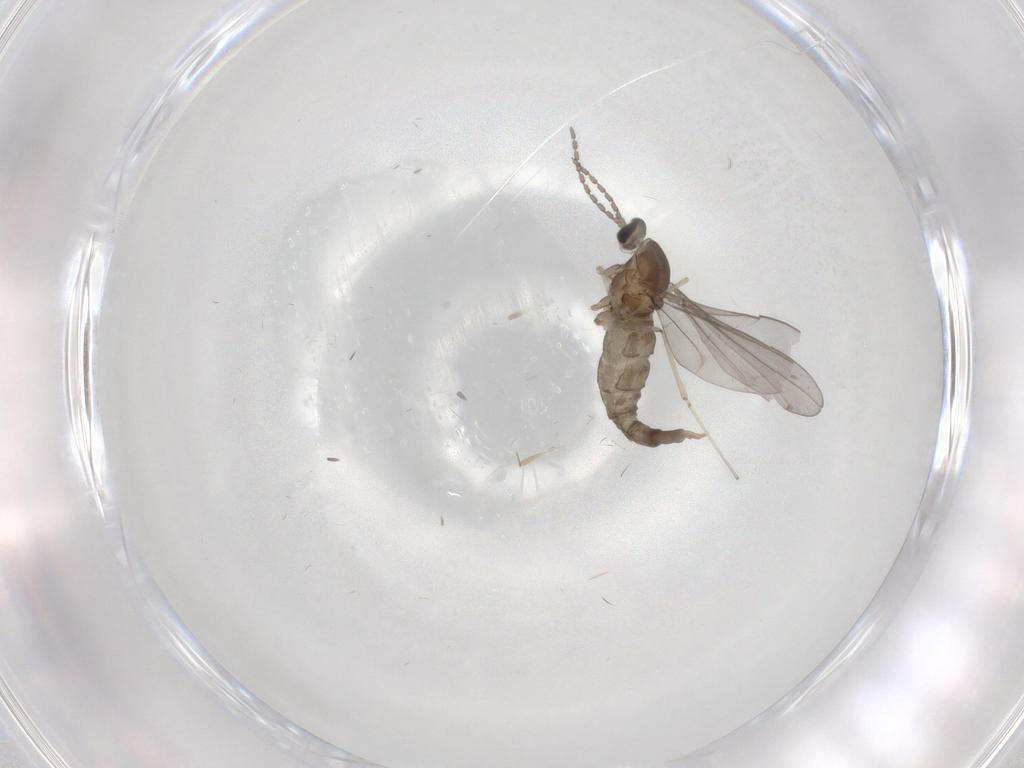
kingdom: Animalia
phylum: Arthropoda
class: Insecta
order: Diptera
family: Cecidomyiidae
